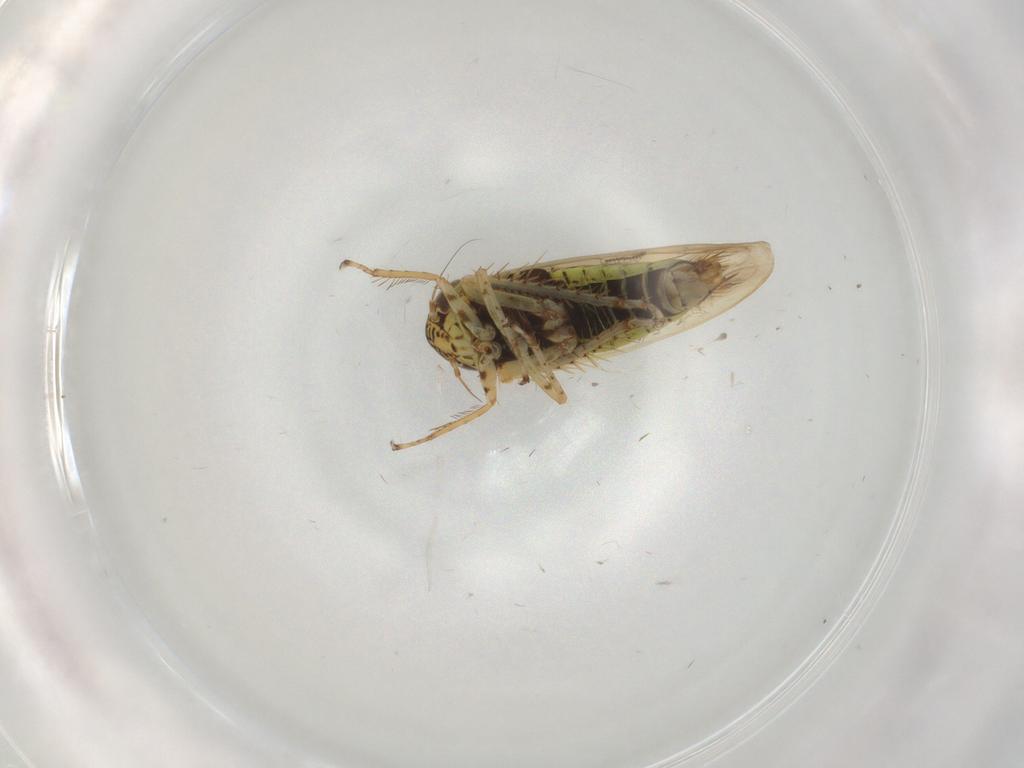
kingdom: Animalia
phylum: Arthropoda
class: Insecta
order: Hemiptera
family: Cicadellidae
